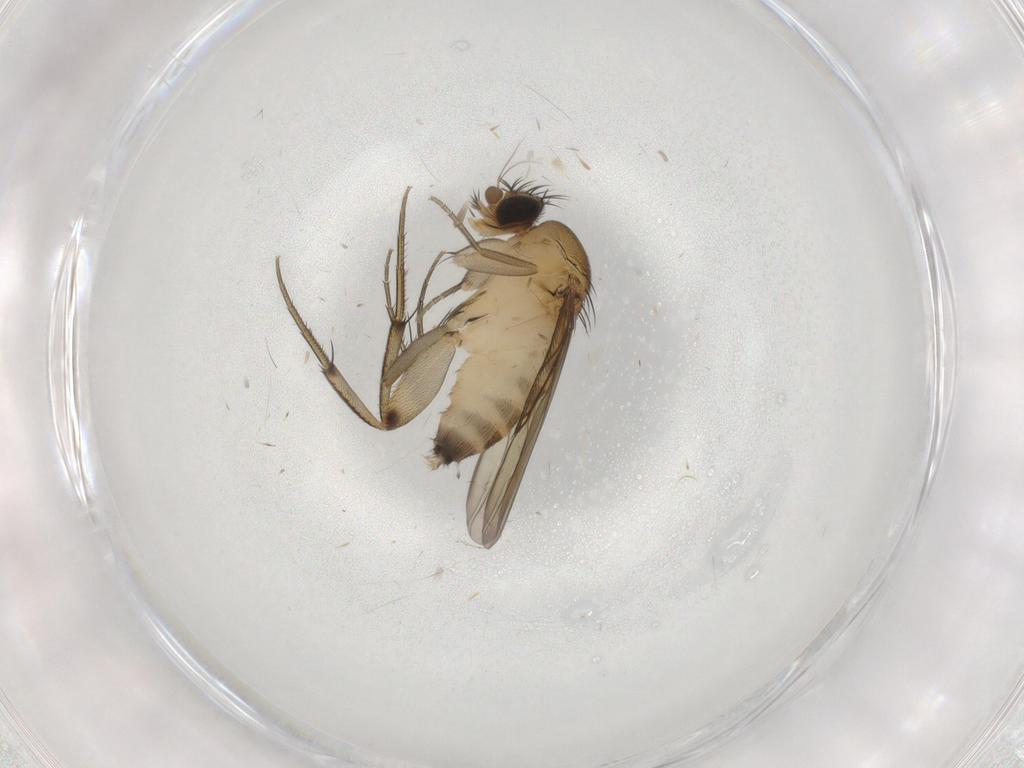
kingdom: Animalia
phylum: Arthropoda
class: Insecta
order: Diptera
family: Phoridae
